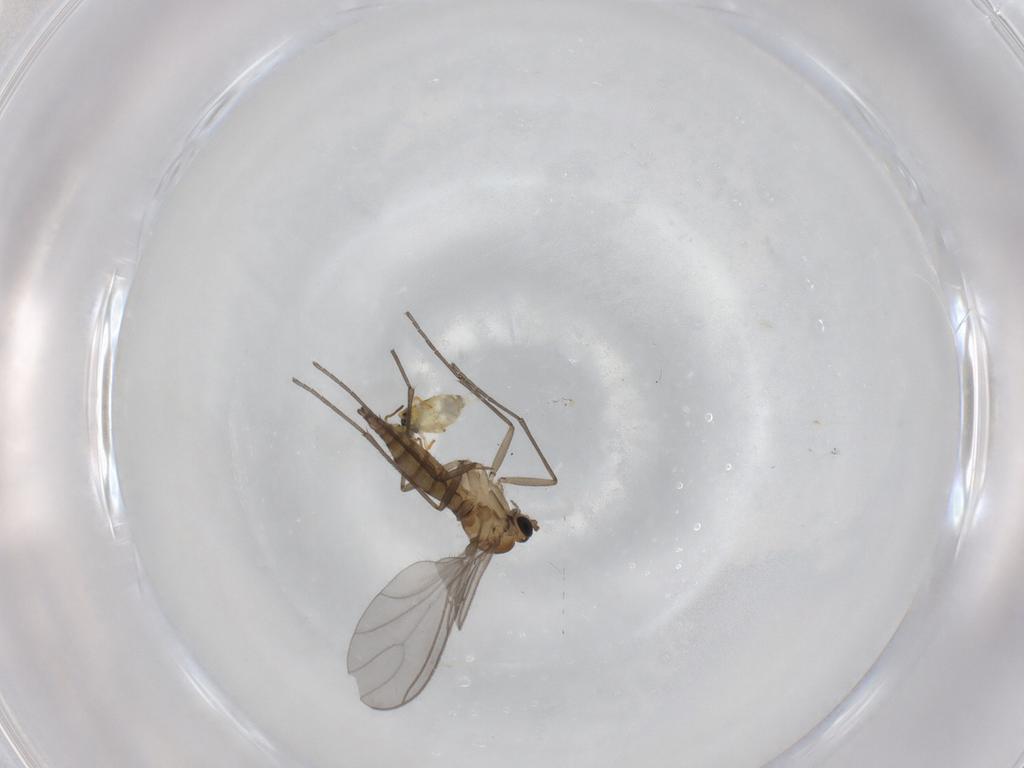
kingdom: Animalia
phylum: Arthropoda
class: Insecta
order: Diptera
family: Sciaridae
